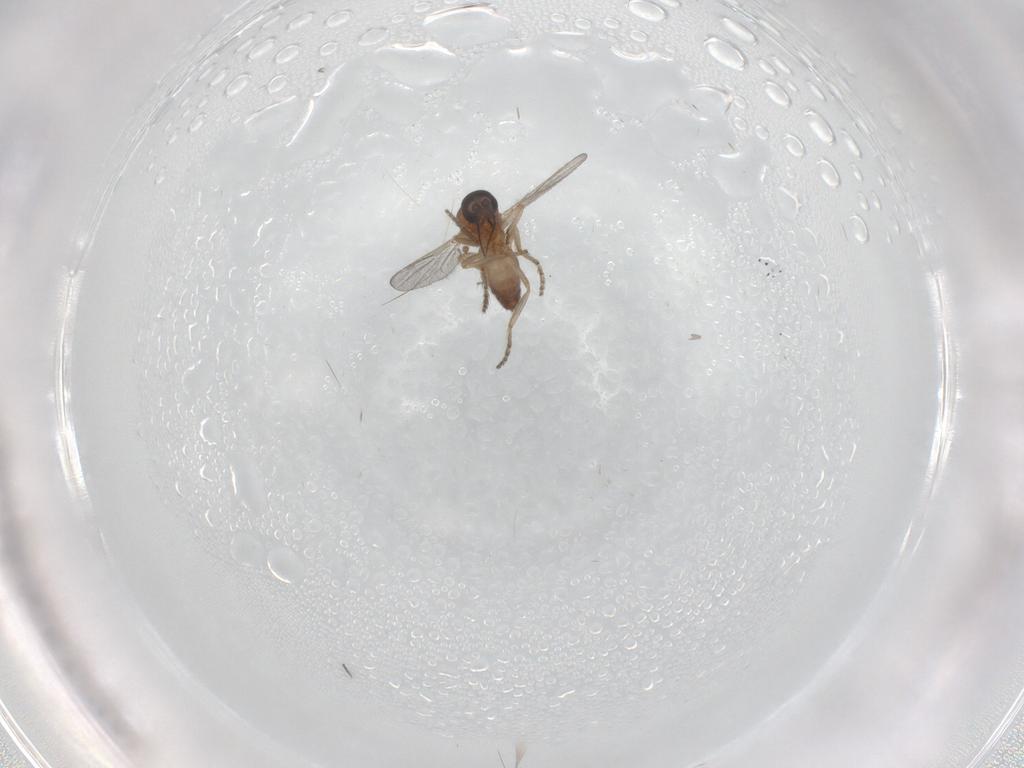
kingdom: Animalia
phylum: Arthropoda
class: Insecta
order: Diptera
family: Ceratopogonidae
